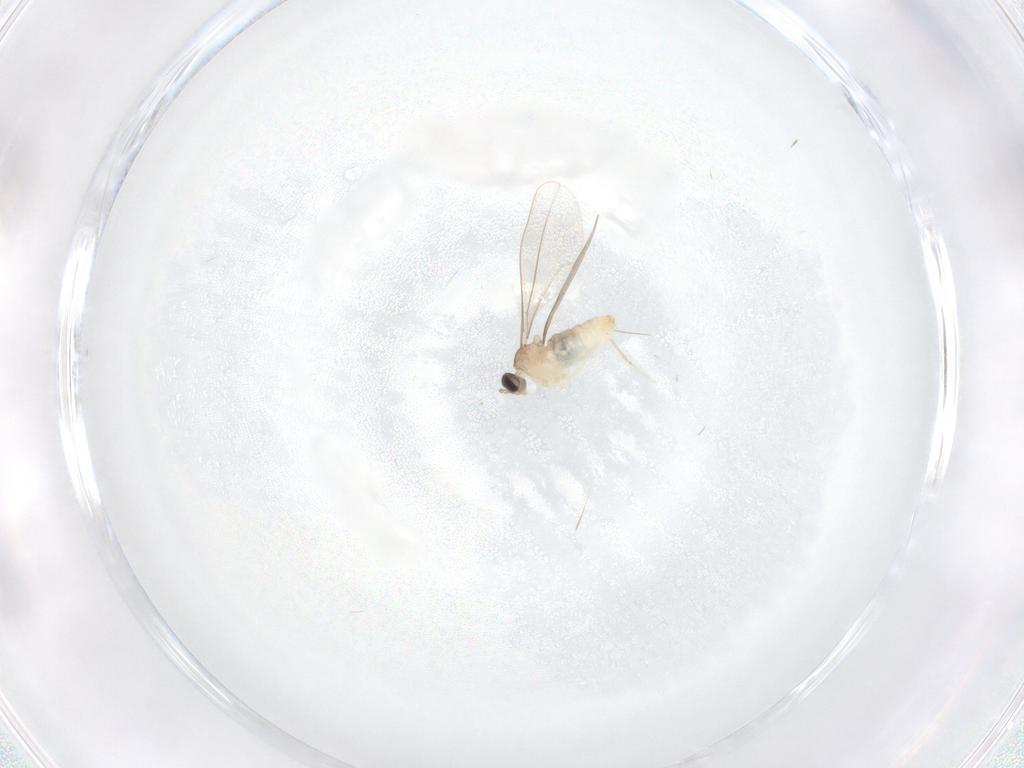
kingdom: Animalia
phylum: Arthropoda
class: Insecta
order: Diptera
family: Cecidomyiidae
